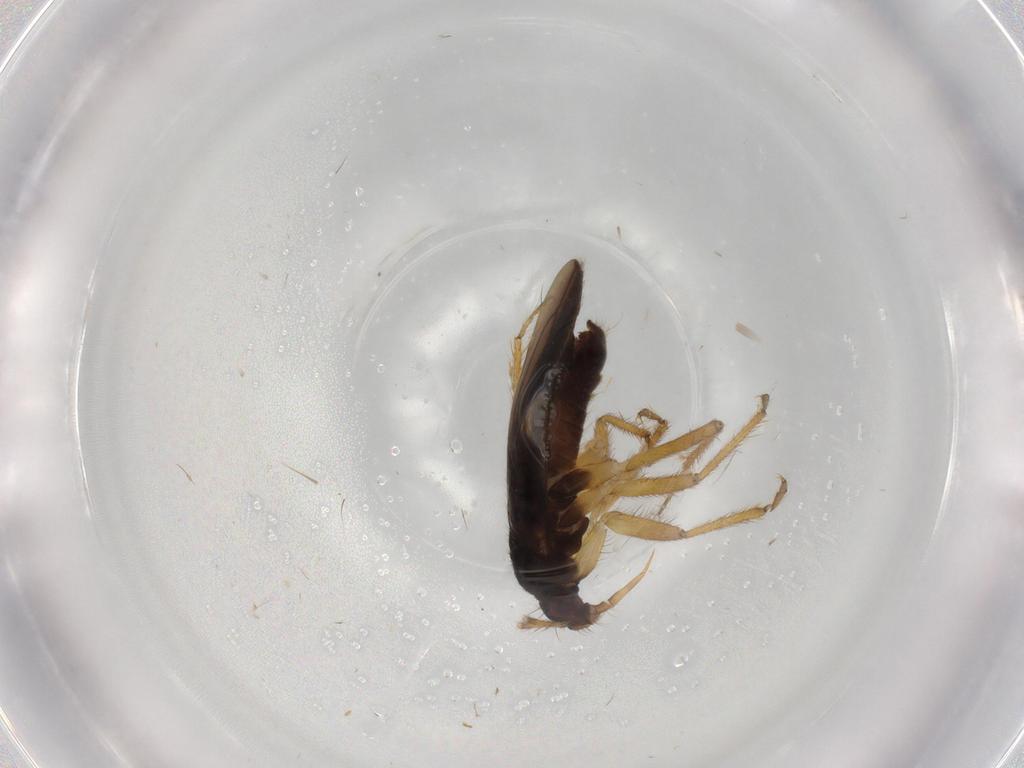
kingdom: Animalia
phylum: Arthropoda
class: Insecta
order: Hemiptera
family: Ceratocombidae
